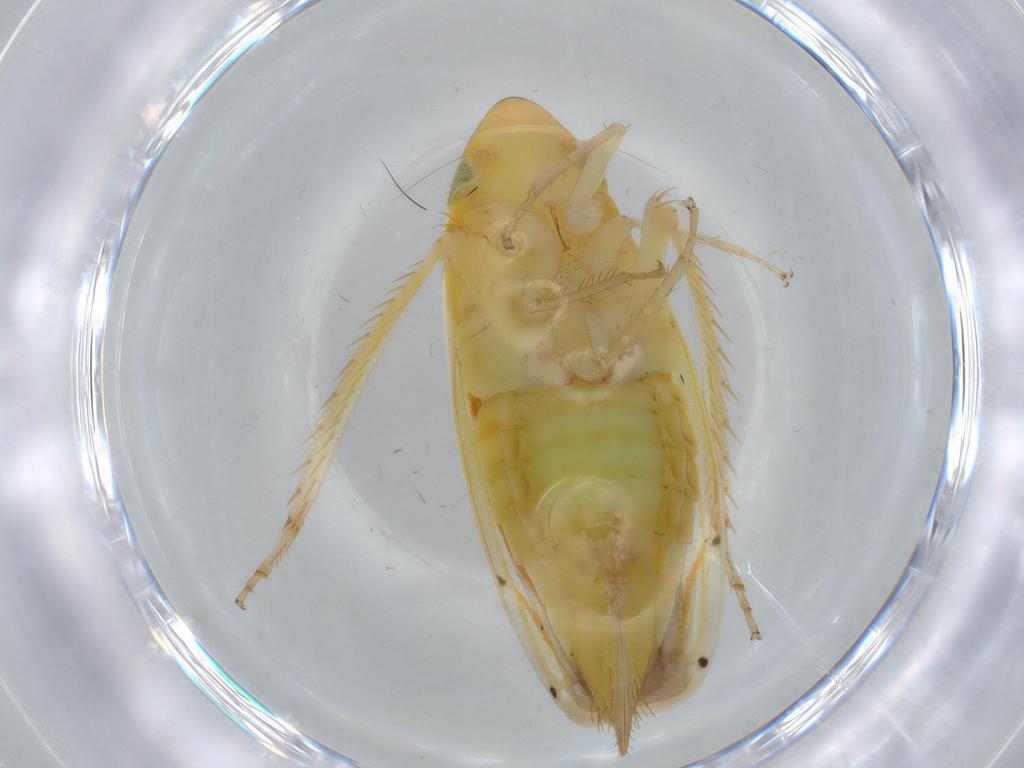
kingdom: Animalia
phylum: Arthropoda
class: Insecta
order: Hemiptera
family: Cicadellidae
